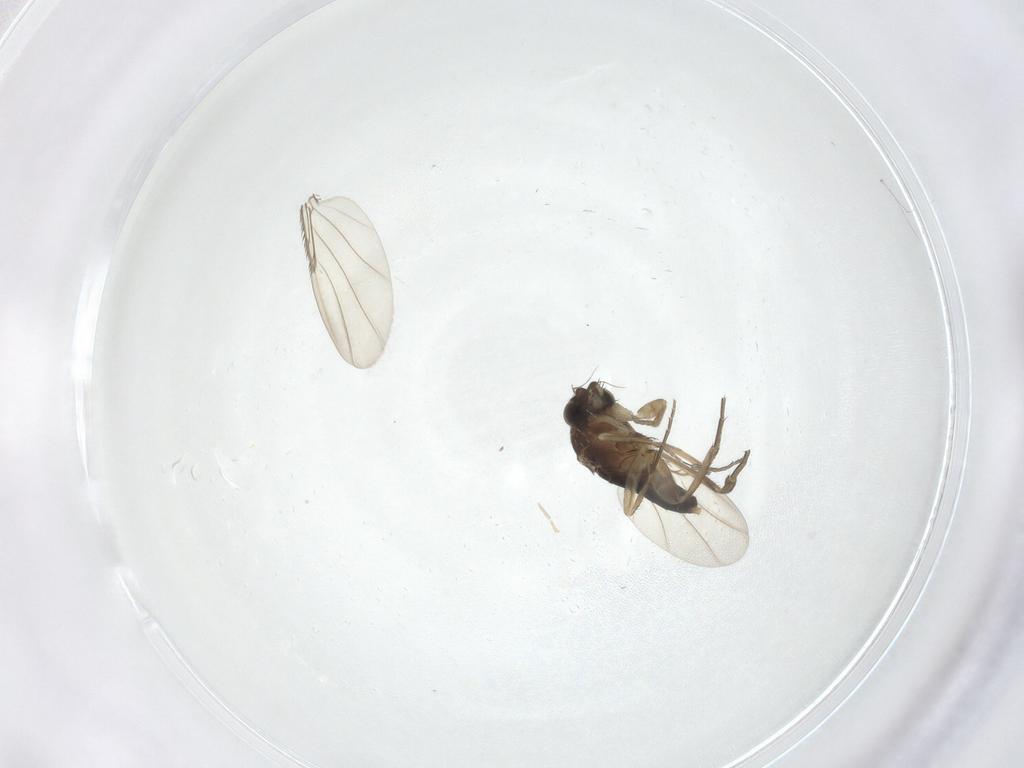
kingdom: Animalia
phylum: Arthropoda
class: Insecta
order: Diptera
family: Phoridae
